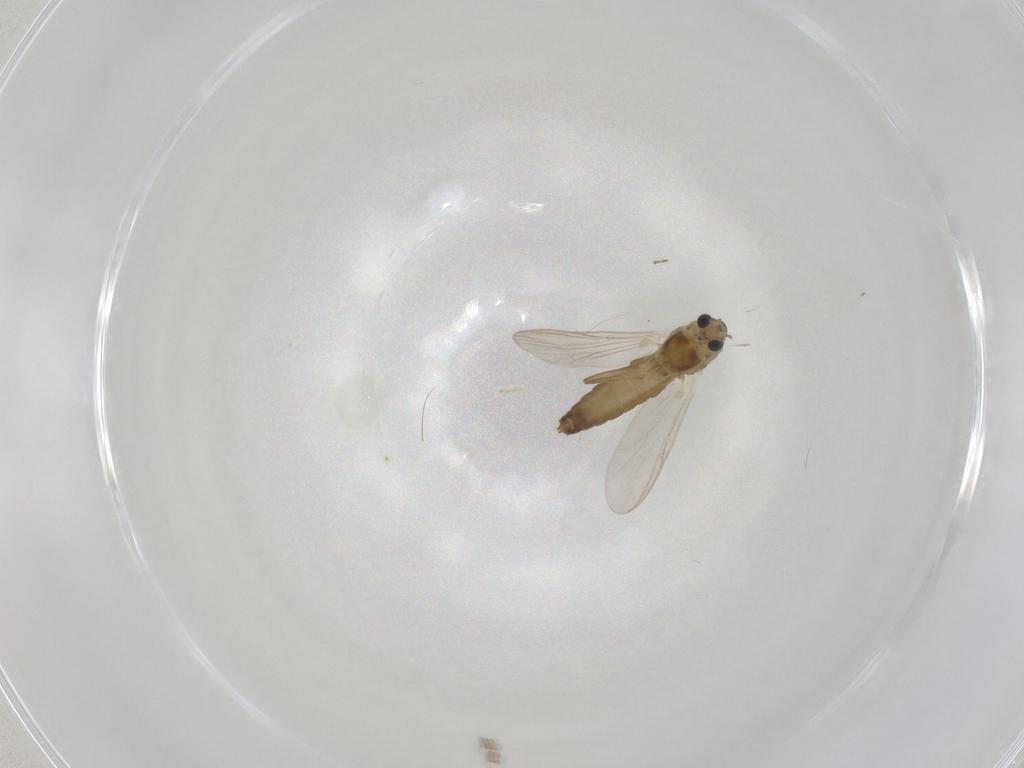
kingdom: Animalia
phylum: Arthropoda
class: Insecta
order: Diptera
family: Chironomidae
